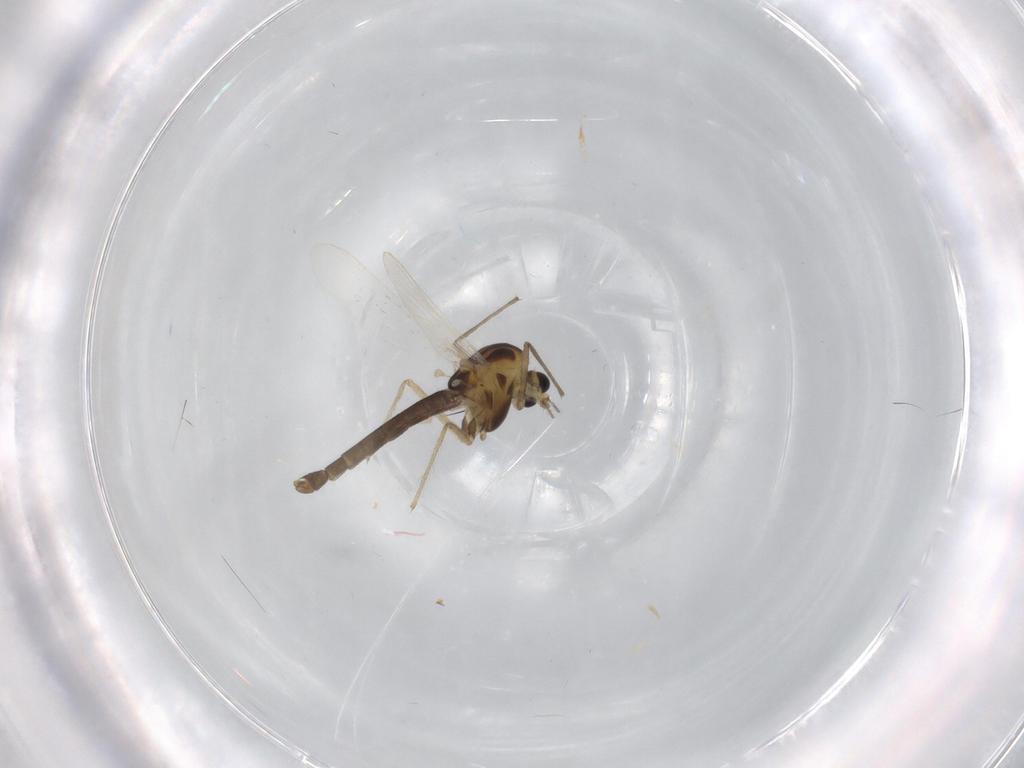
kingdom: Animalia
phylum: Arthropoda
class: Insecta
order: Diptera
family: Chironomidae
